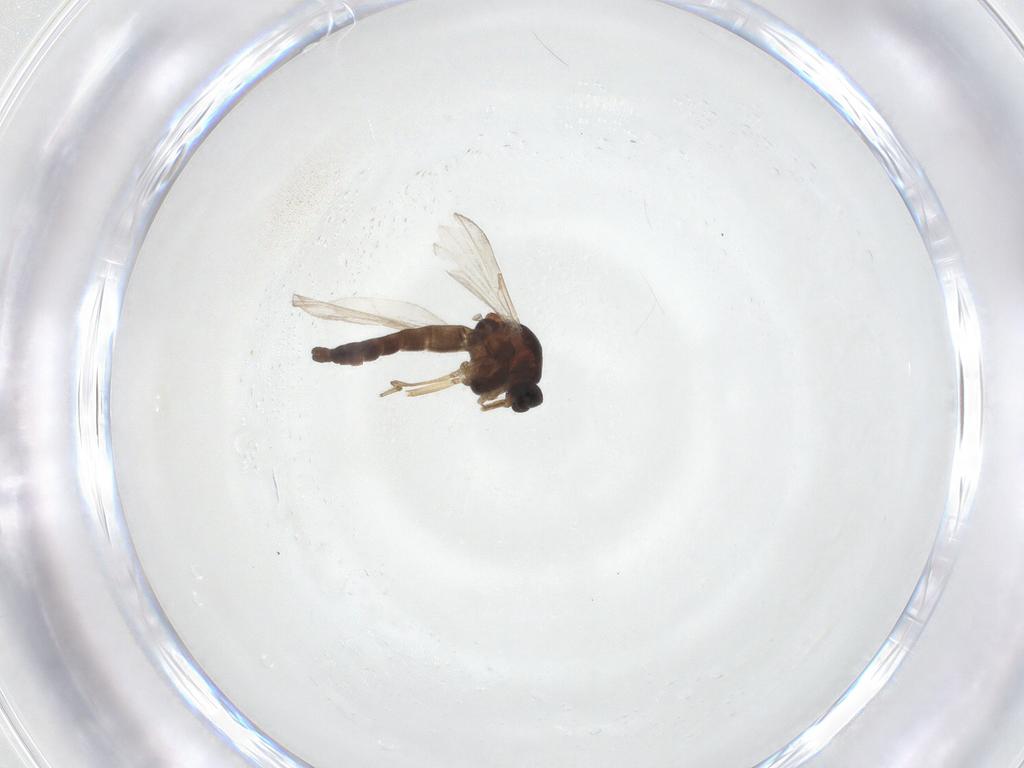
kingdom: Animalia
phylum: Arthropoda
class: Insecta
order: Diptera
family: Ceratopogonidae
